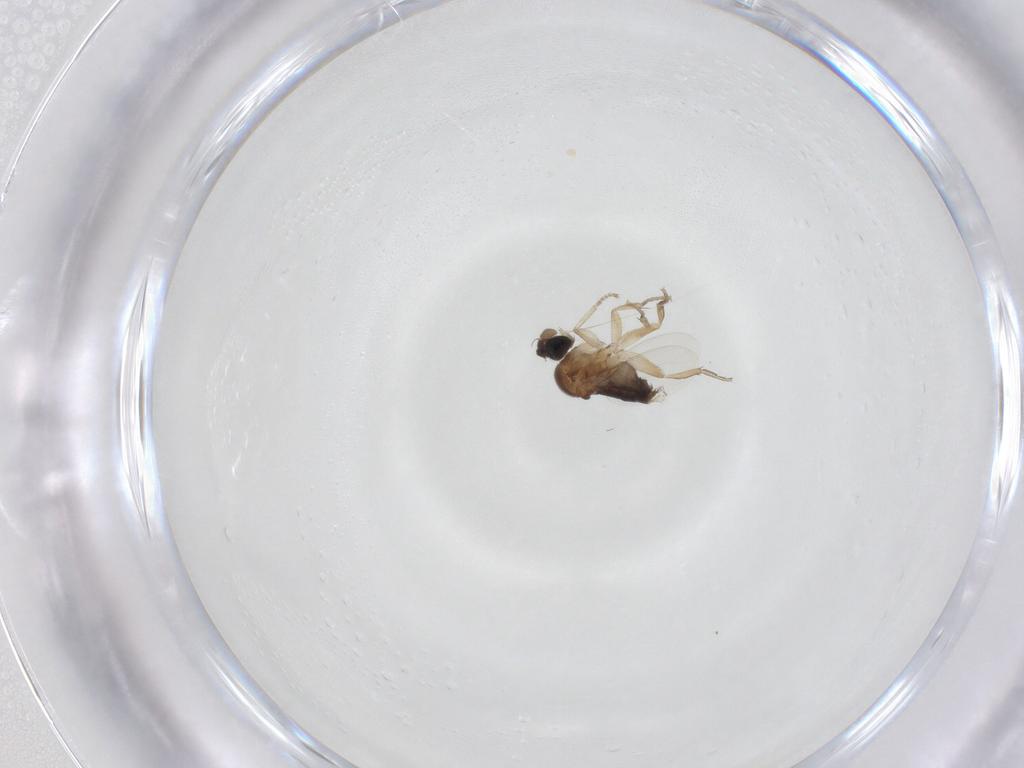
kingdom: Animalia
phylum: Arthropoda
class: Insecta
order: Diptera
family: Phoridae
